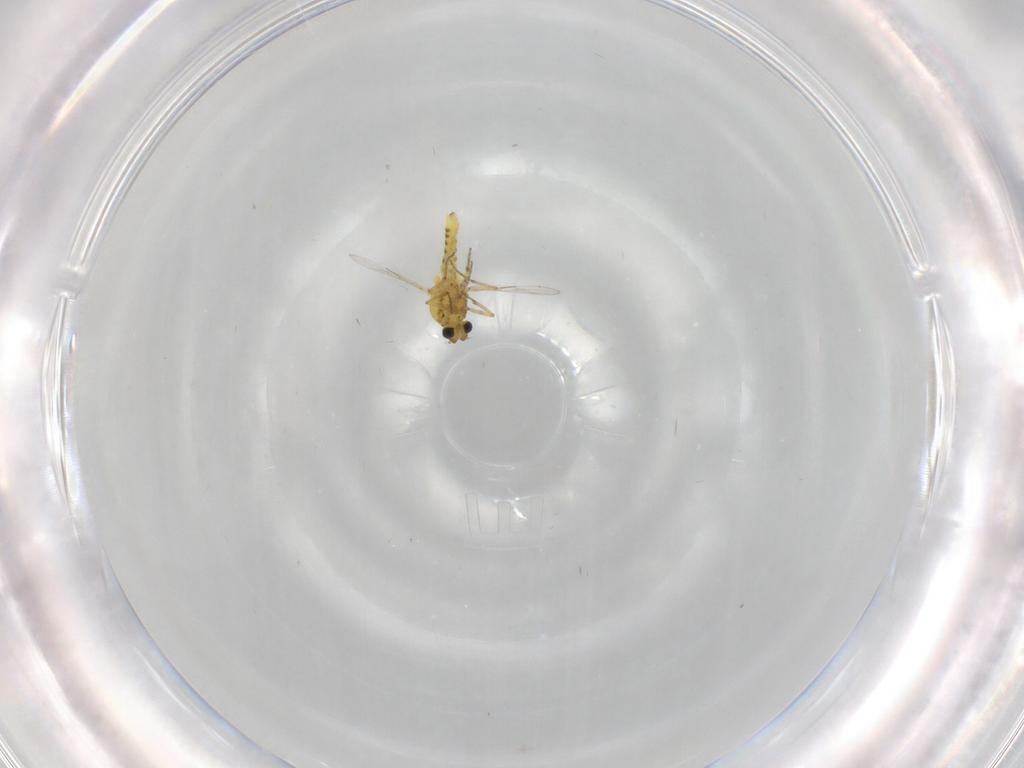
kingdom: Animalia
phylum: Arthropoda
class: Insecta
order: Diptera
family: Ceratopogonidae
